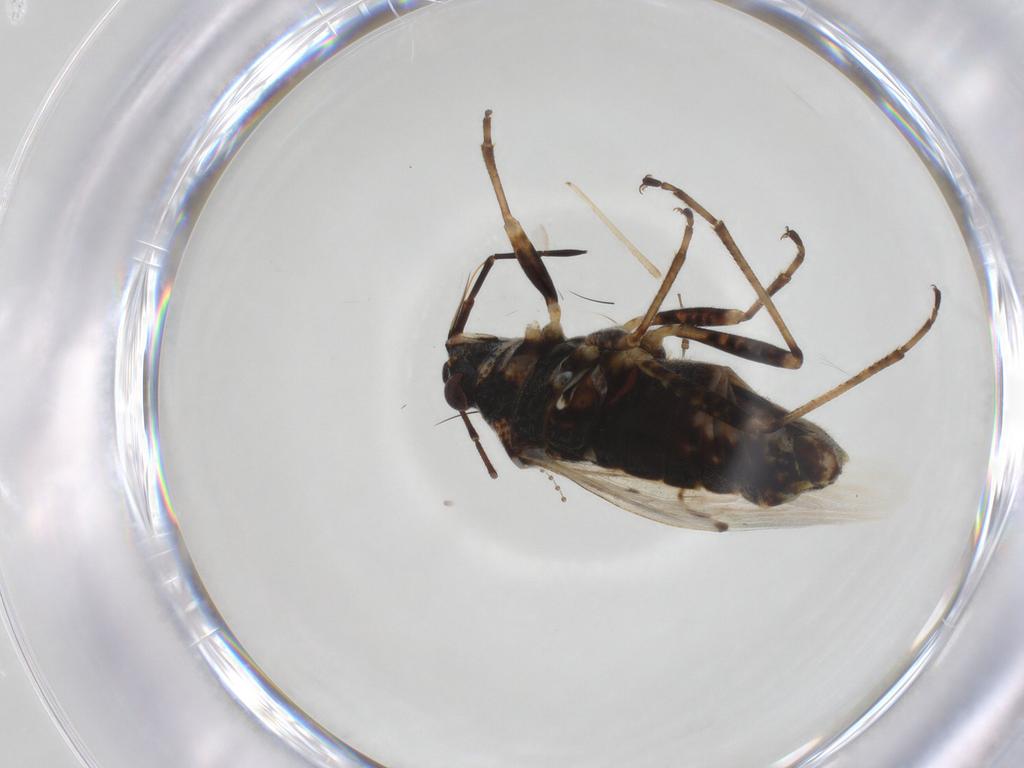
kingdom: Animalia
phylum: Arthropoda
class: Insecta
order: Hemiptera
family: Lygaeidae
